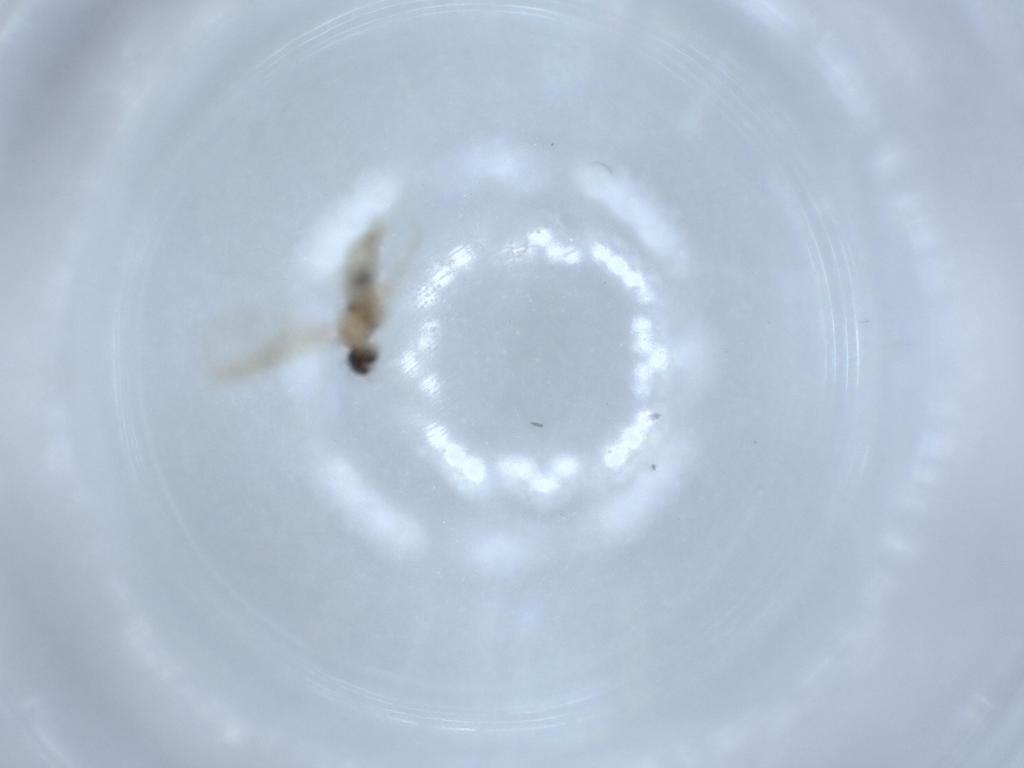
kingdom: Animalia
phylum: Arthropoda
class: Insecta
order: Diptera
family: Cecidomyiidae
